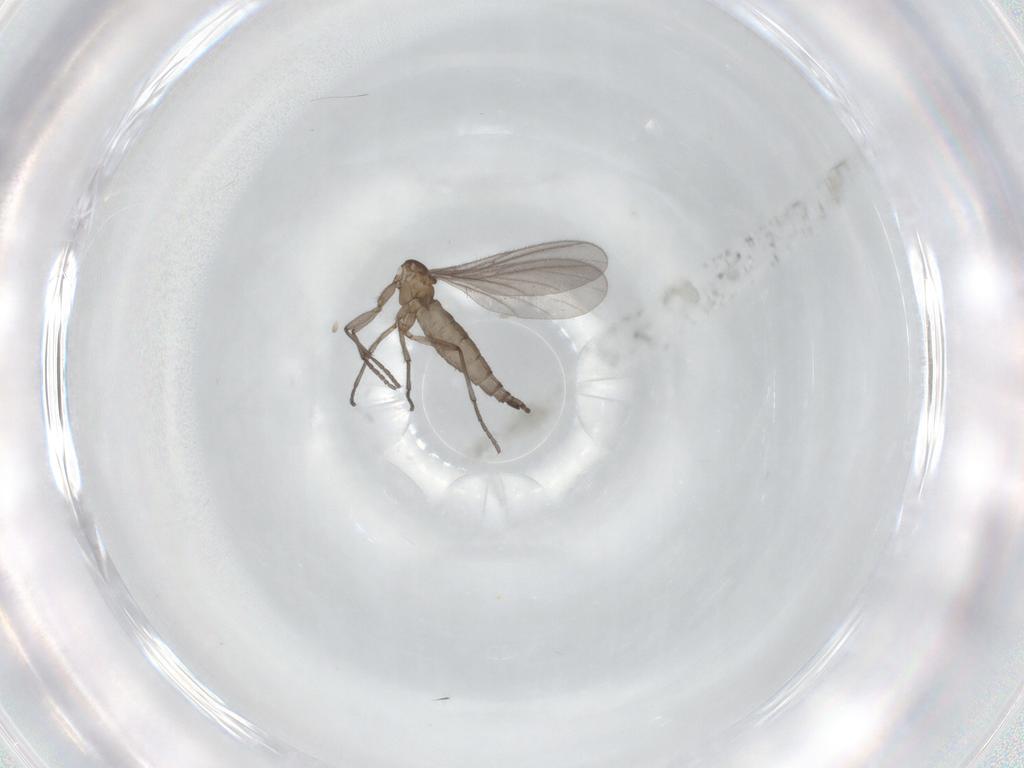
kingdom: Animalia
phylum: Arthropoda
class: Insecta
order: Diptera
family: Sciaridae
